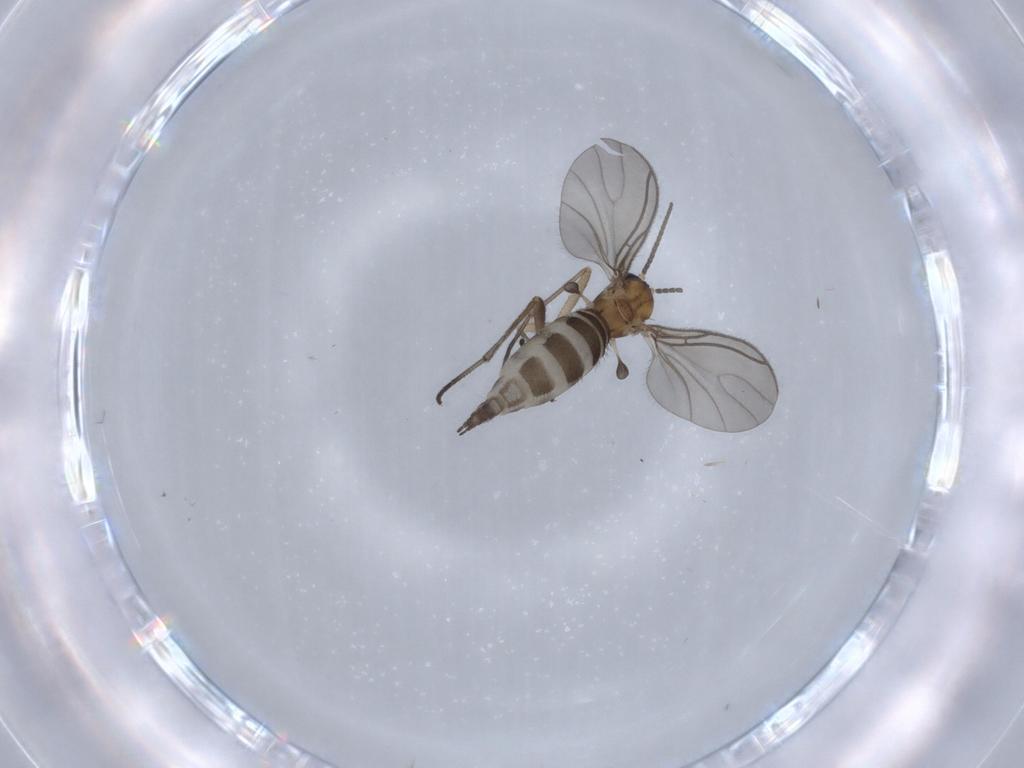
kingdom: Animalia
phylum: Arthropoda
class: Insecta
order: Diptera
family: Sciaridae
